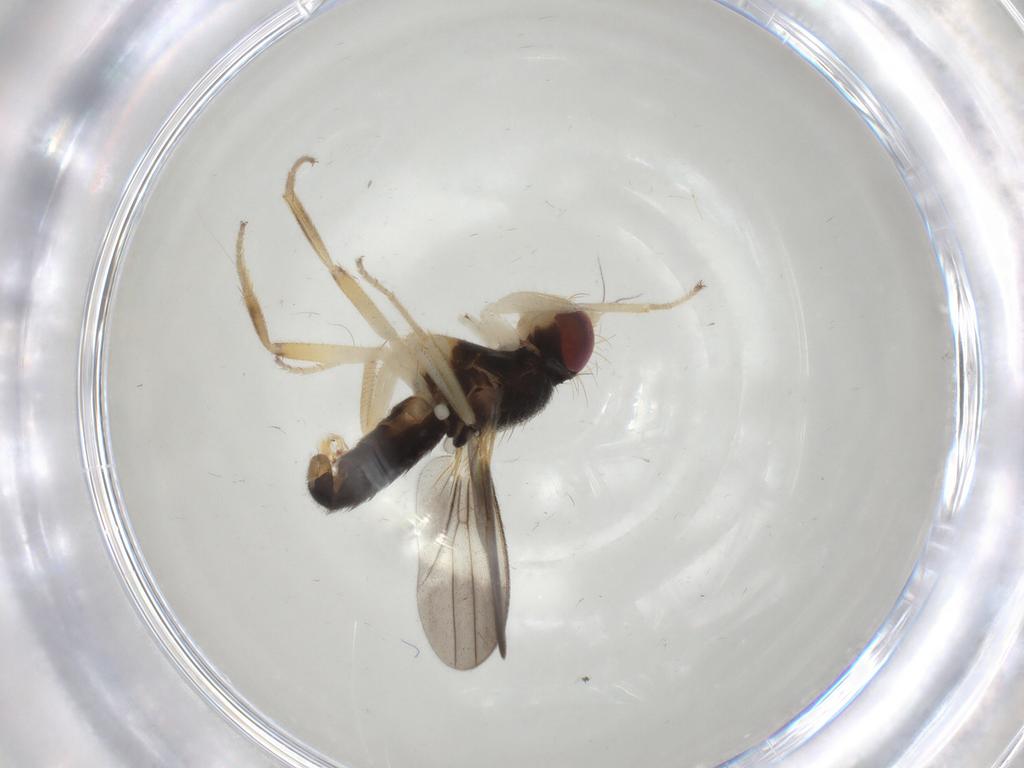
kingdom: Animalia
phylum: Arthropoda
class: Insecta
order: Diptera
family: Clusiidae
